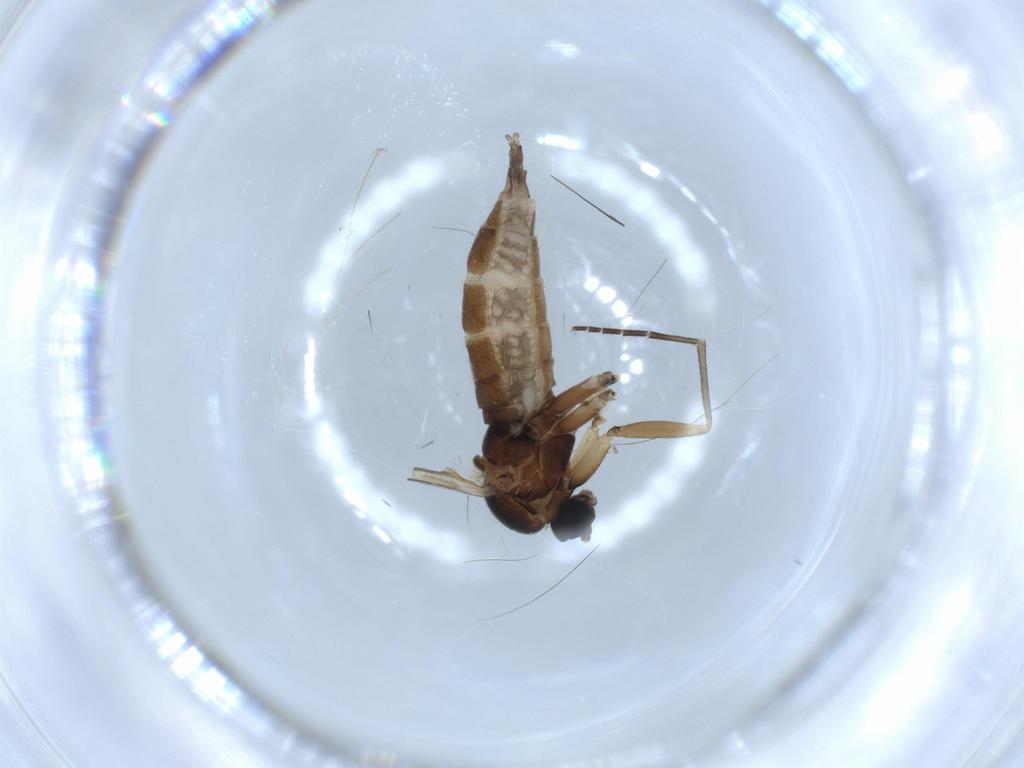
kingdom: Animalia
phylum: Arthropoda
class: Insecta
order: Diptera
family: Sciaridae
